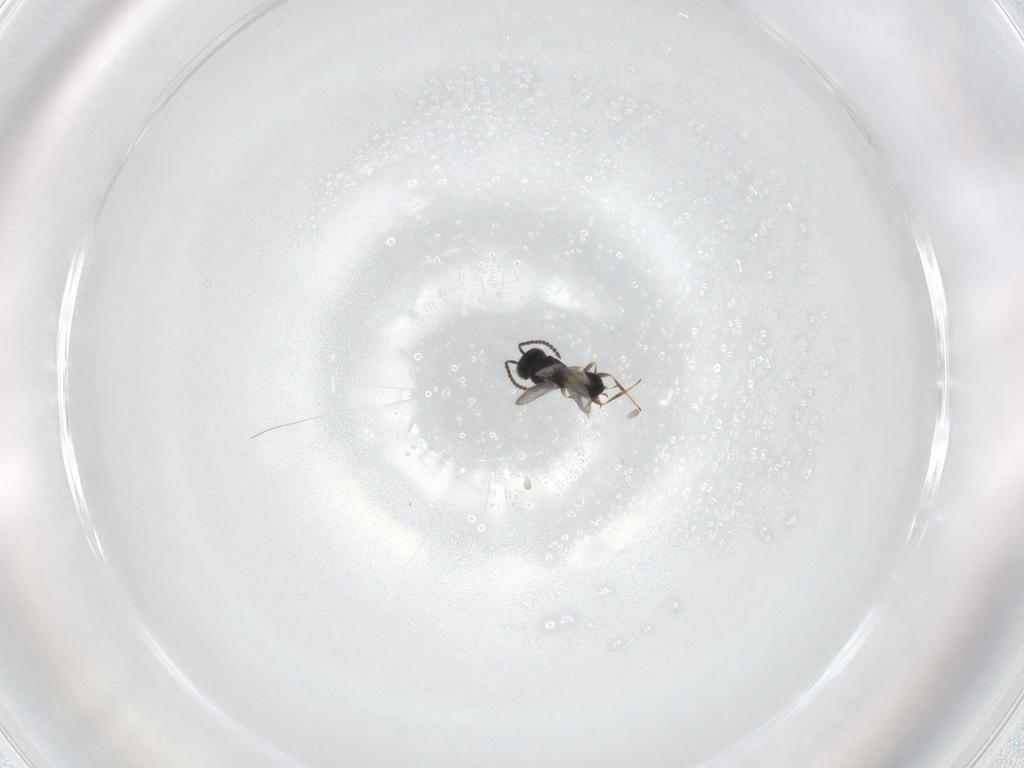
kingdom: Animalia
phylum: Arthropoda
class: Insecta
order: Hymenoptera
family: Scelionidae
